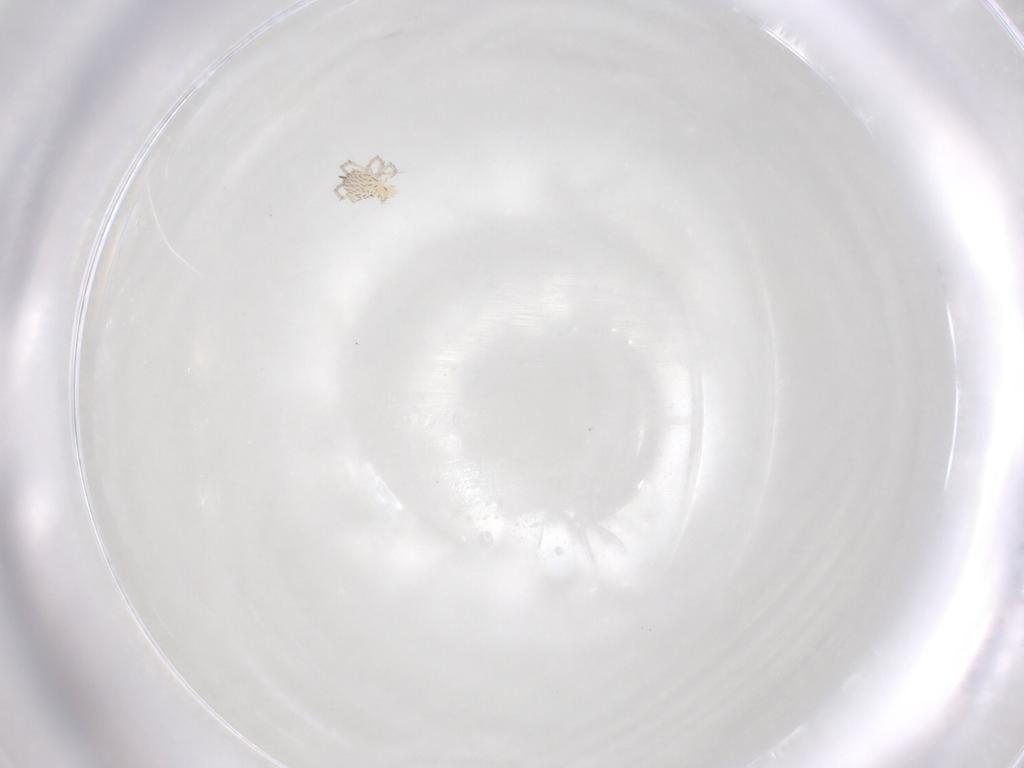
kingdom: Animalia
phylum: Arthropoda
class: Arachnida
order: Trombidiformes
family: Erythraeidae
